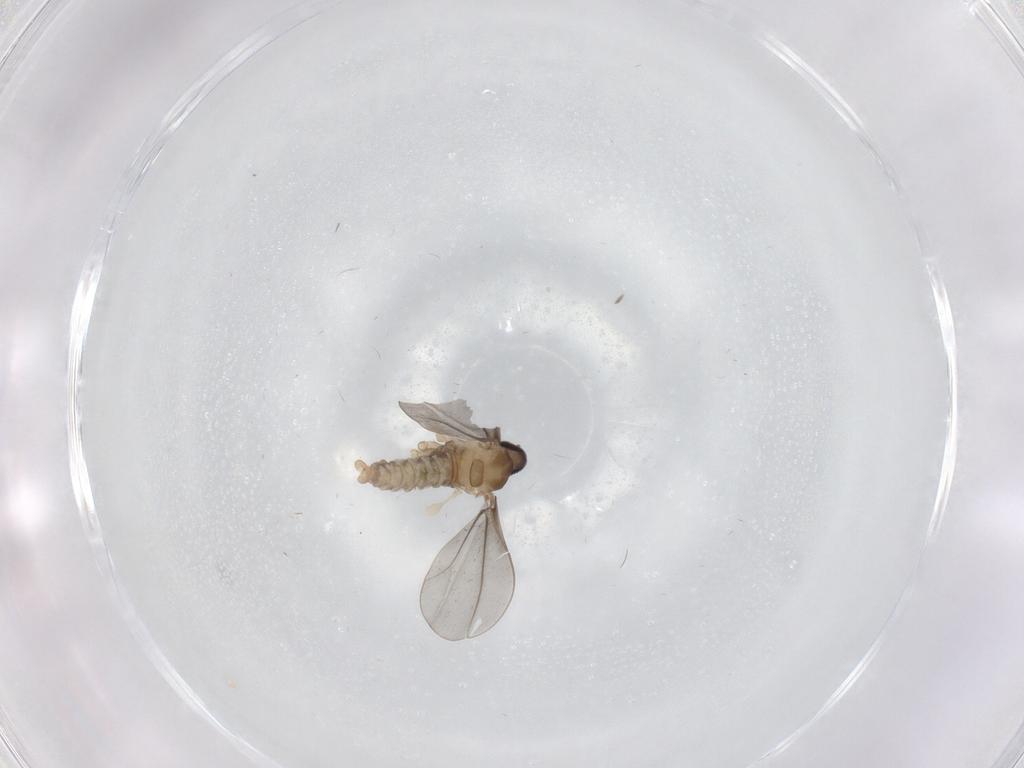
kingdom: Animalia
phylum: Arthropoda
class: Insecta
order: Diptera
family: Cecidomyiidae
